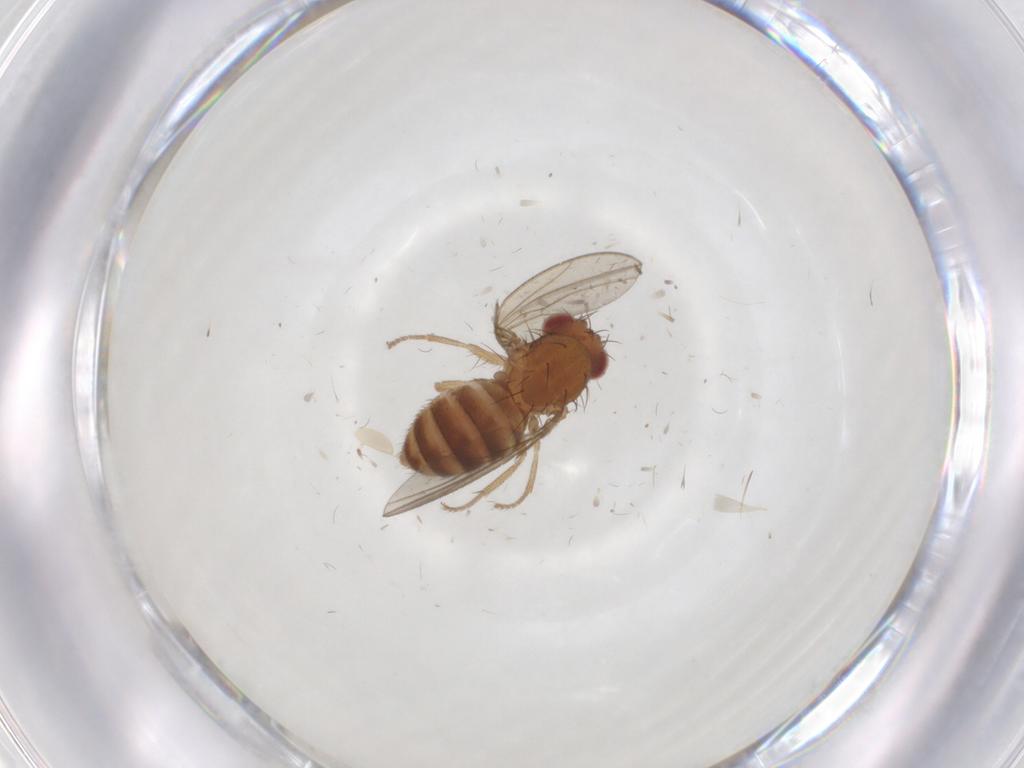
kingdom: Animalia
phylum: Arthropoda
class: Insecta
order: Diptera
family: Drosophilidae
